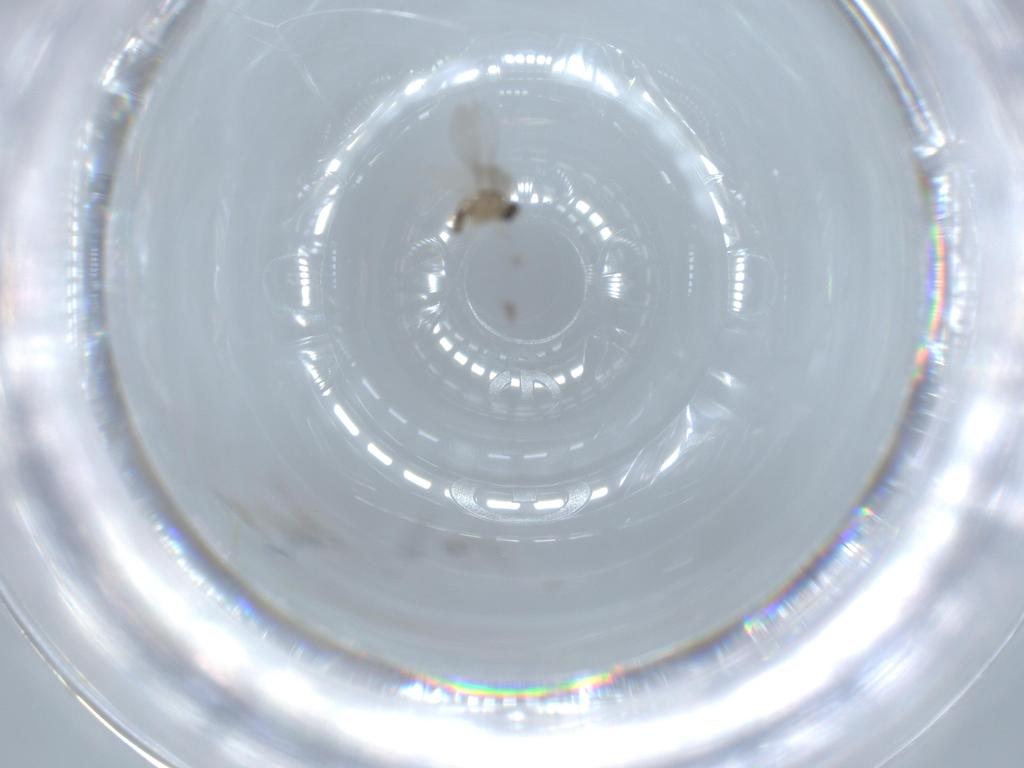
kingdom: Animalia
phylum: Arthropoda
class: Insecta
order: Diptera
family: Cecidomyiidae
